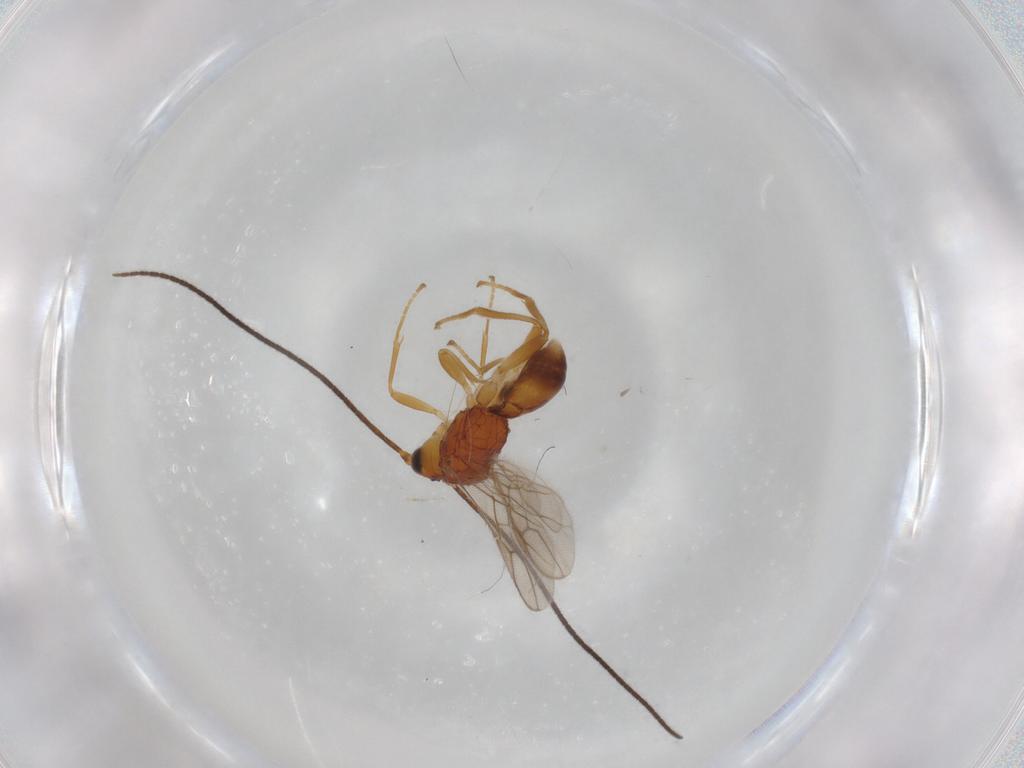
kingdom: Animalia
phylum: Arthropoda
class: Insecta
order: Hymenoptera
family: Braconidae
